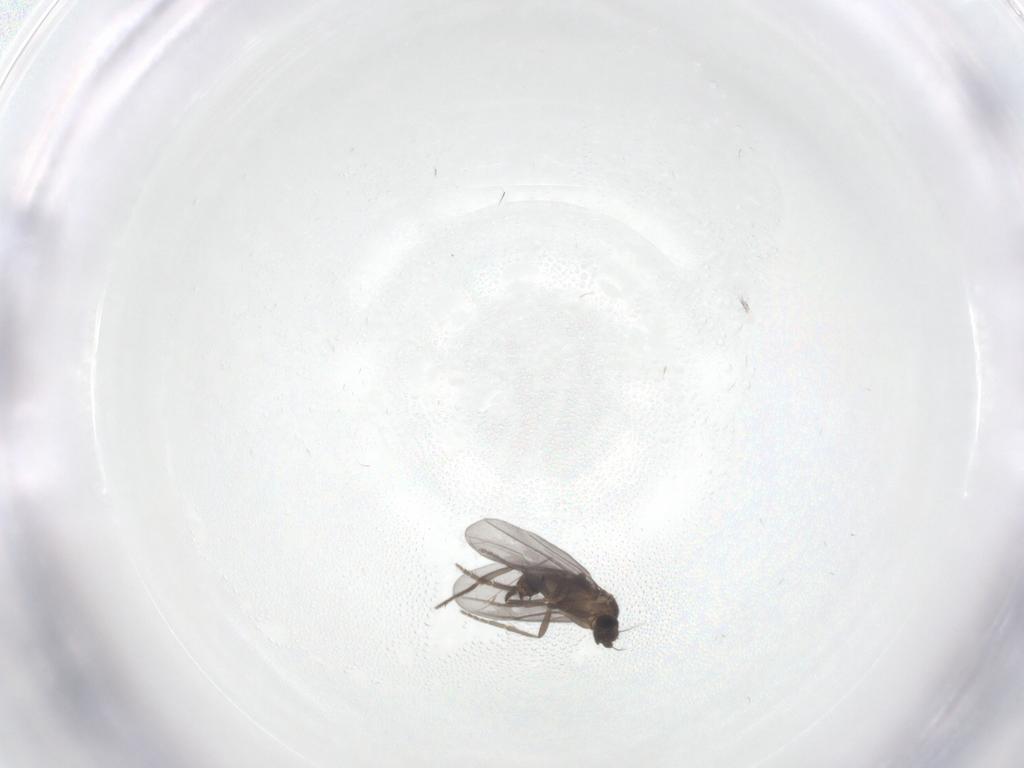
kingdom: Animalia
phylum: Arthropoda
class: Insecta
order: Diptera
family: Phoridae
